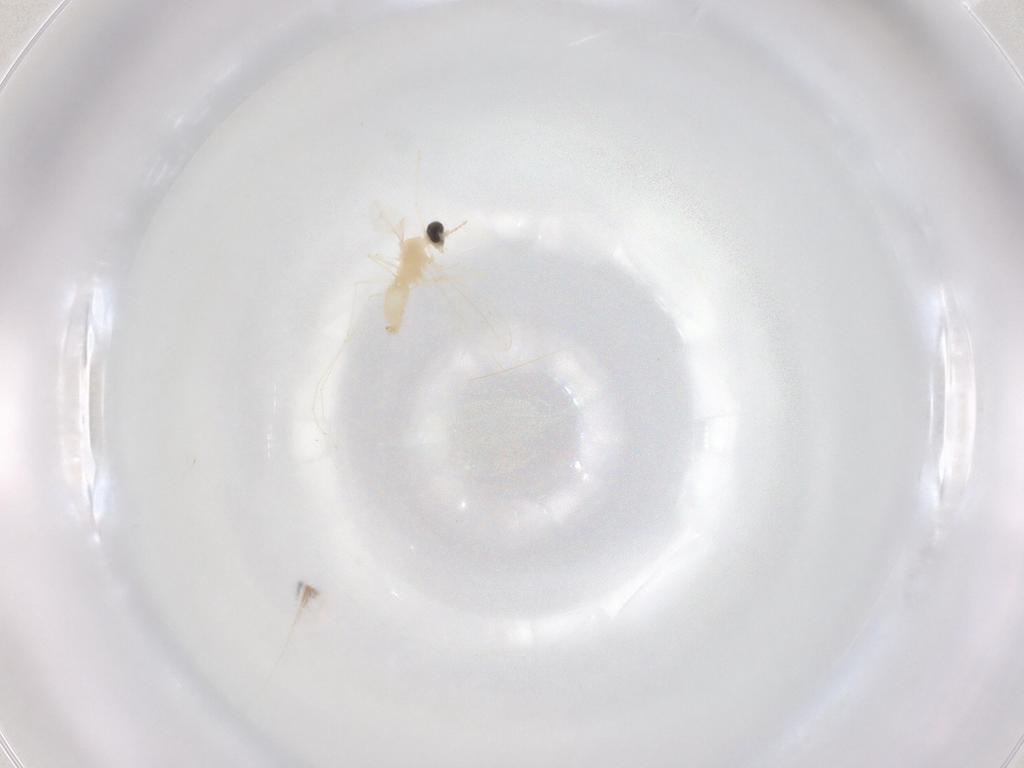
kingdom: Animalia
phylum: Arthropoda
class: Insecta
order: Diptera
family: Cecidomyiidae
